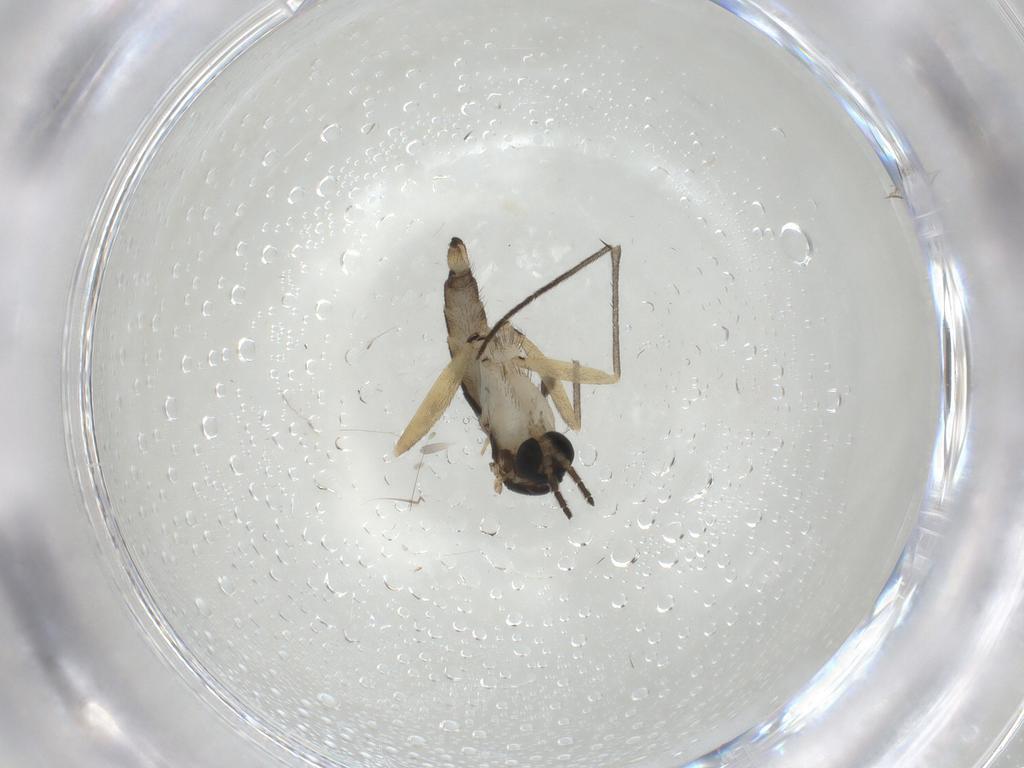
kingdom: Animalia
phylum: Arthropoda
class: Insecta
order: Diptera
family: Sciaridae
